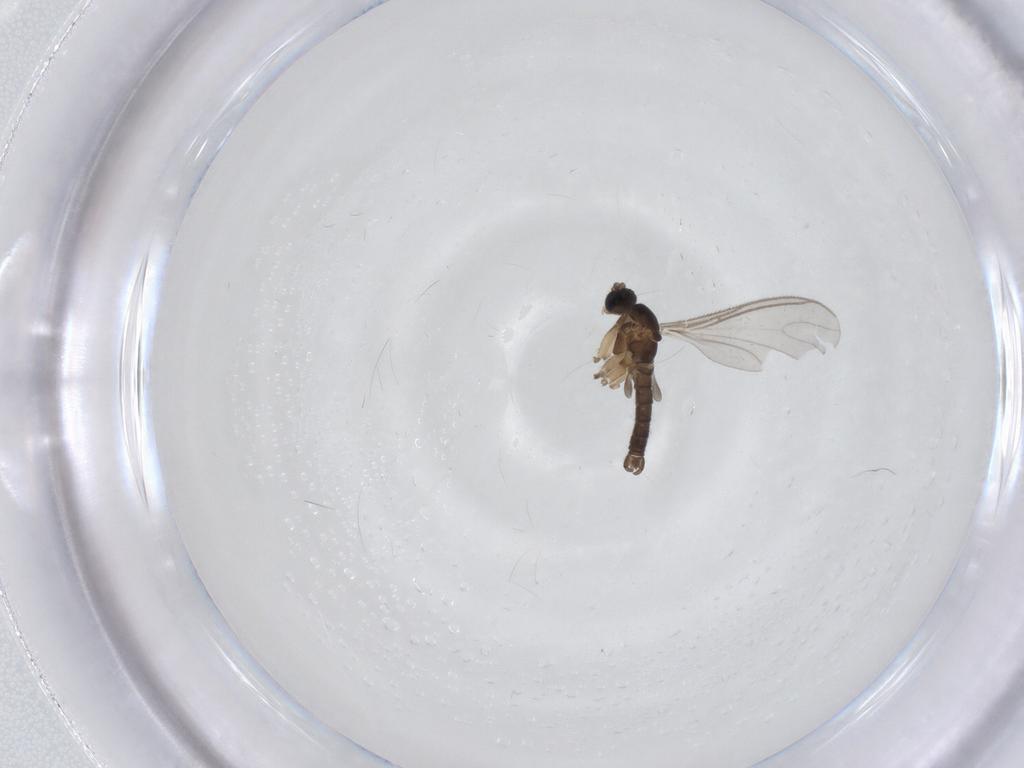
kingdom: Animalia
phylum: Arthropoda
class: Insecta
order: Diptera
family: Sciaridae
